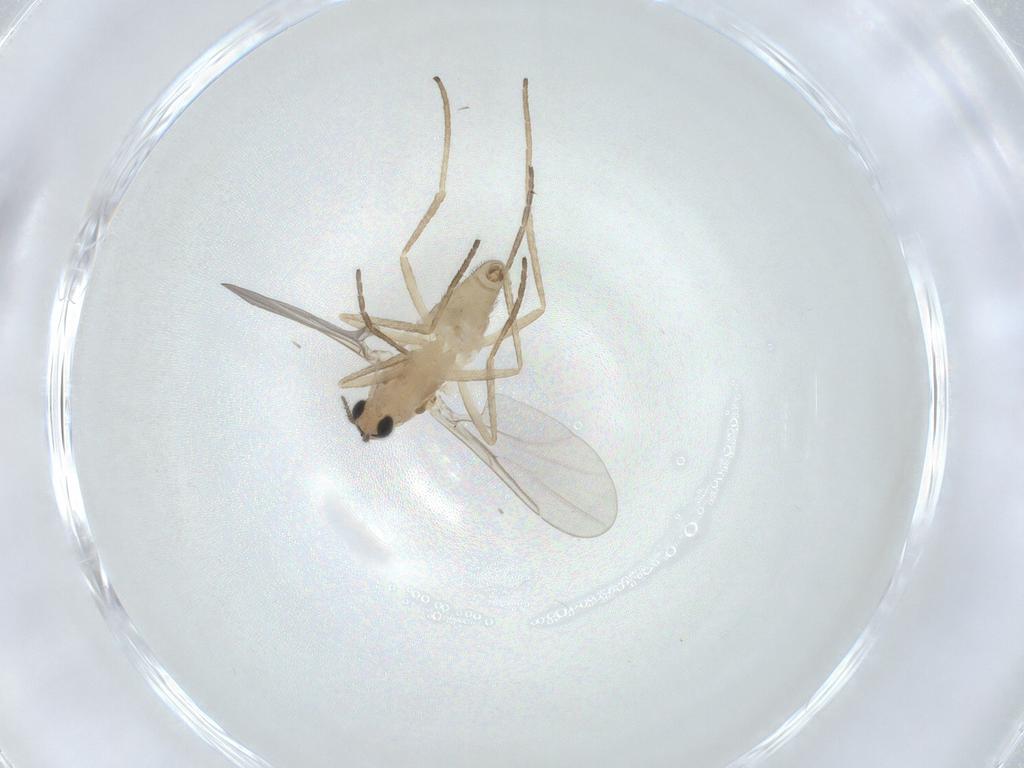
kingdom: Animalia
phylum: Arthropoda
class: Insecta
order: Diptera
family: Cecidomyiidae
